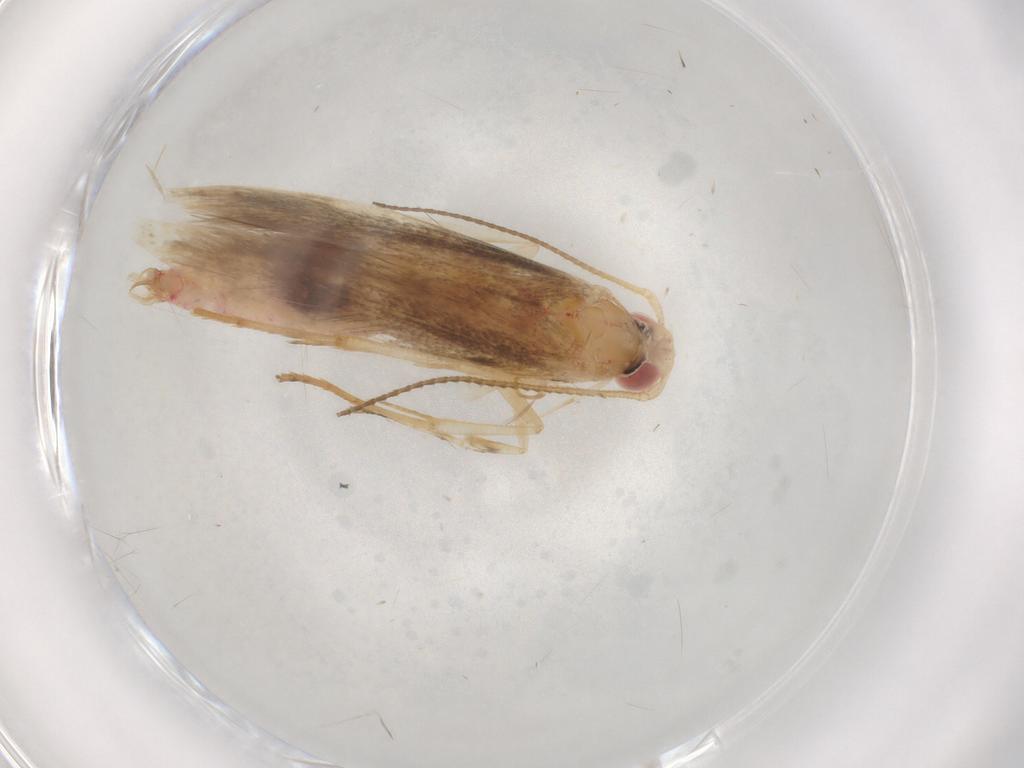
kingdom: Animalia
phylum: Arthropoda
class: Insecta
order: Lepidoptera
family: Cosmopterigidae
